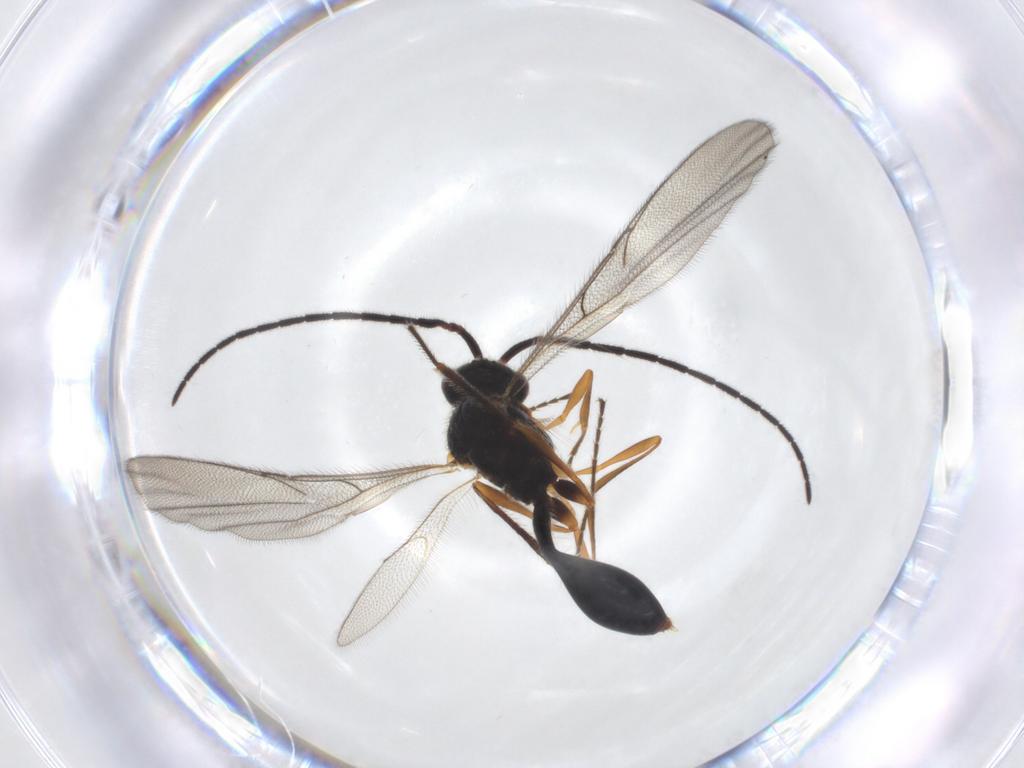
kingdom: Animalia
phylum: Arthropoda
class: Insecta
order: Hymenoptera
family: Diapriidae
